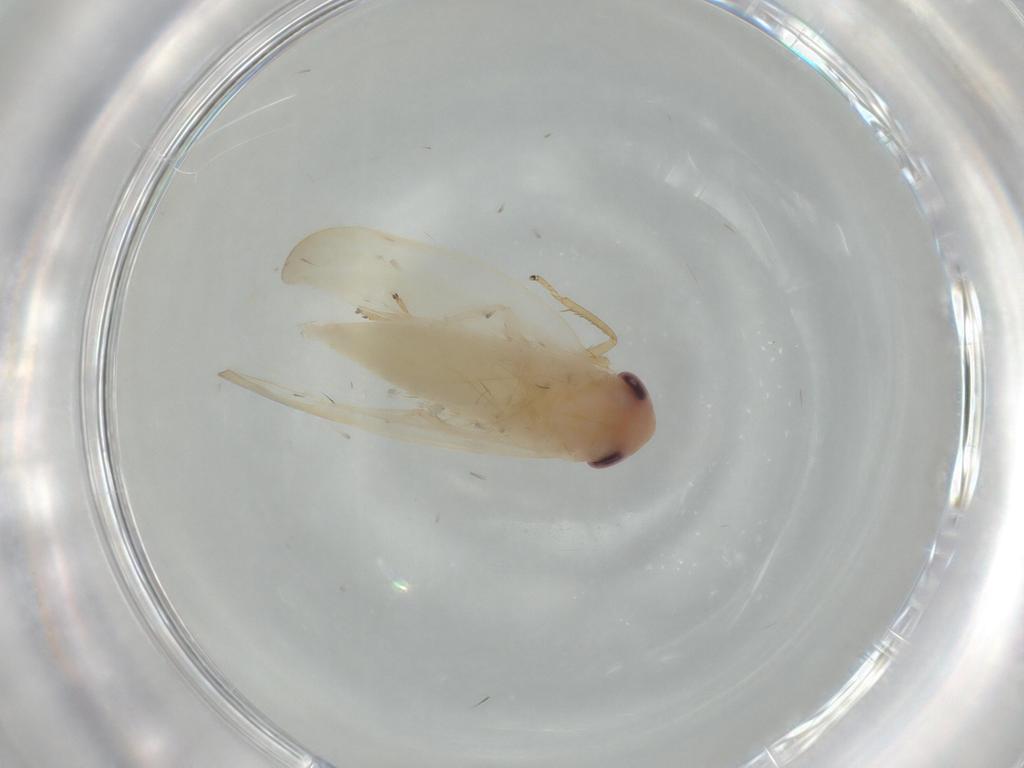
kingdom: Animalia
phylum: Arthropoda
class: Insecta
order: Hemiptera
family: Cicadellidae
